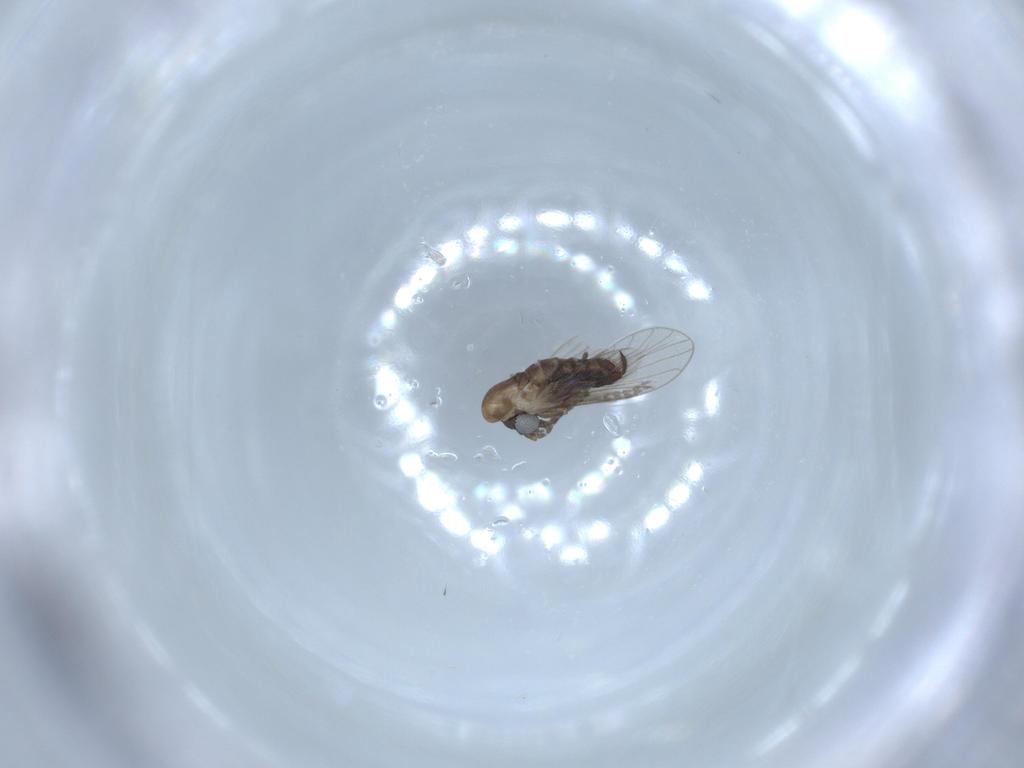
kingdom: Animalia
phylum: Arthropoda
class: Insecta
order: Diptera
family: Psychodidae
